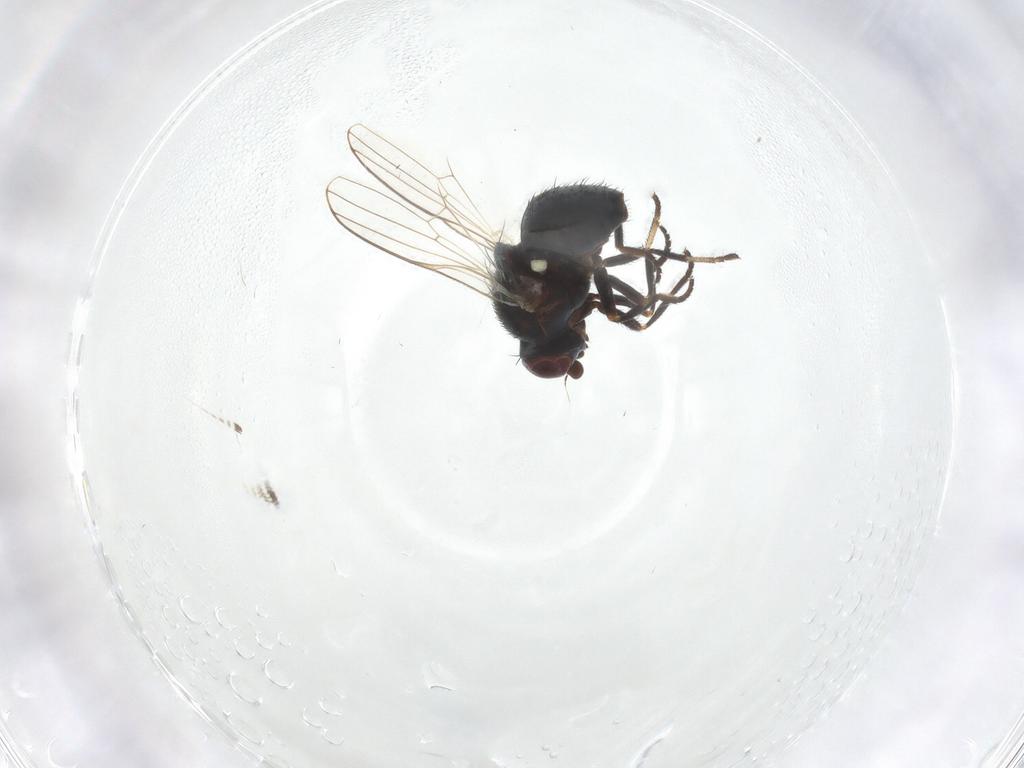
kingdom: Animalia
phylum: Arthropoda
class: Insecta
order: Diptera
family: Chamaemyiidae
